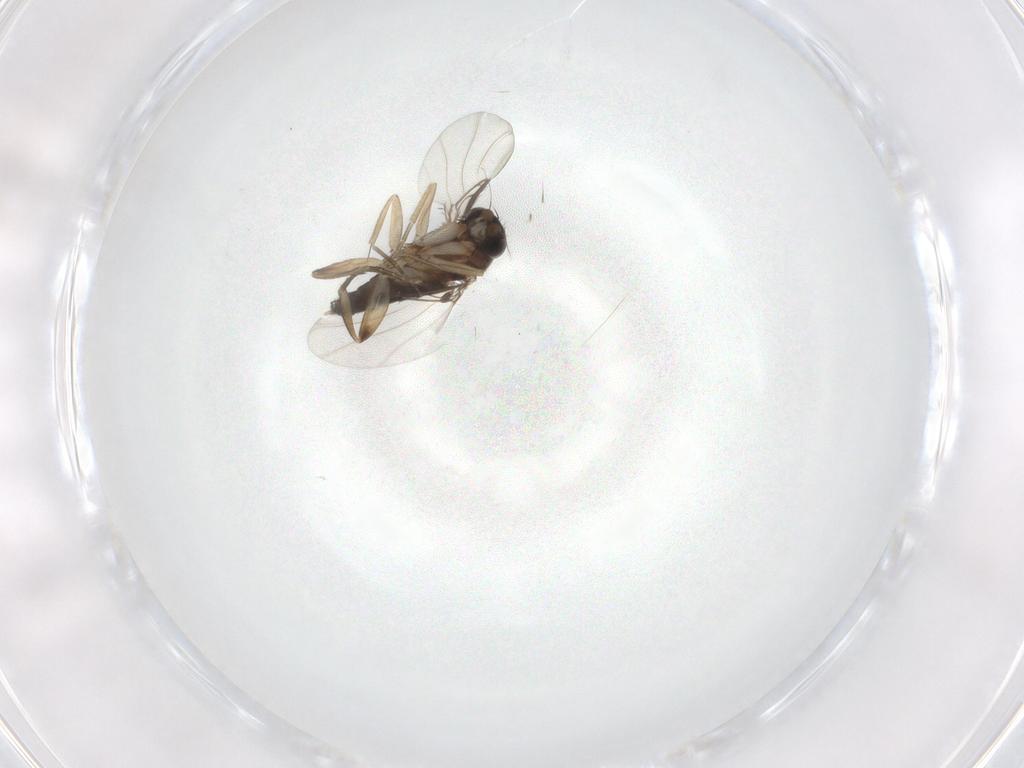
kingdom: Animalia
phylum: Arthropoda
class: Insecta
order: Diptera
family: Phoridae
